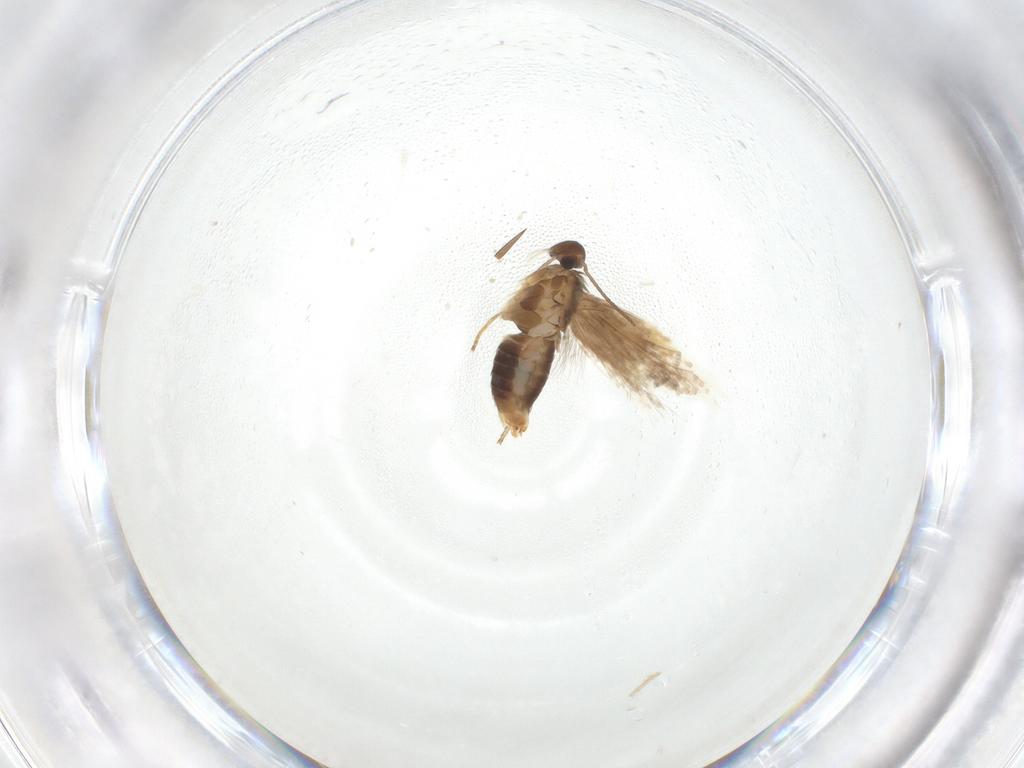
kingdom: Animalia
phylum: Arthropoda
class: Insecta
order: Lepidoptera
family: Heliozelidae
